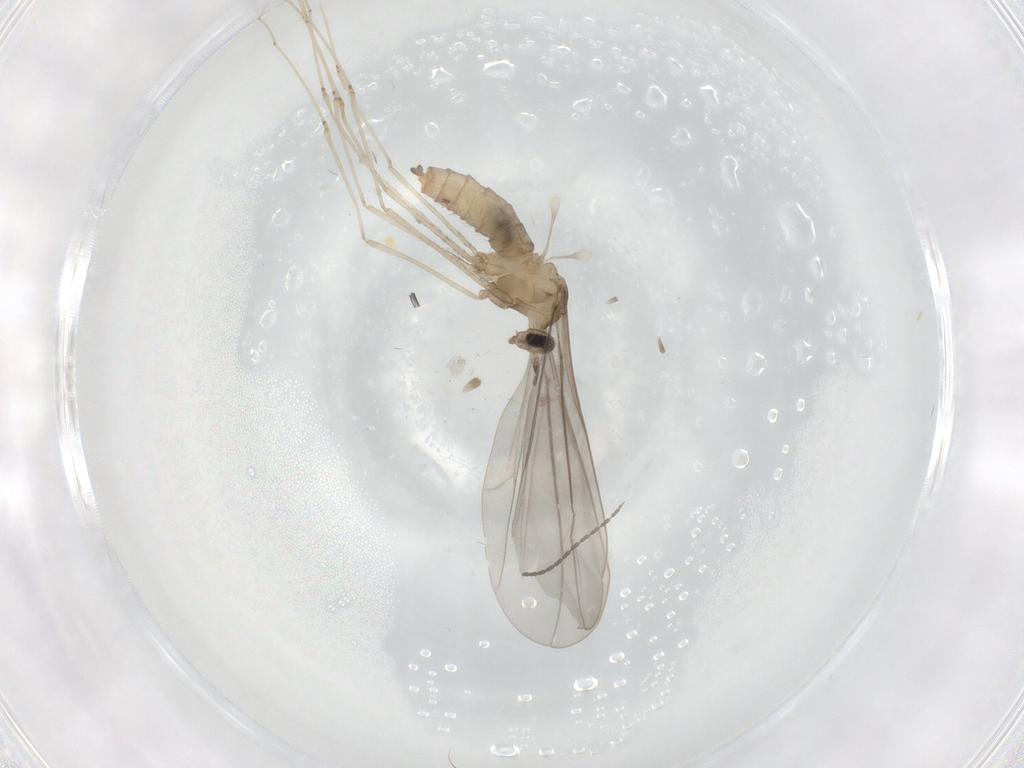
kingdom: Animalia
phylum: Arthropoda
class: Insecta
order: Diptera
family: Cecidomyiidae
